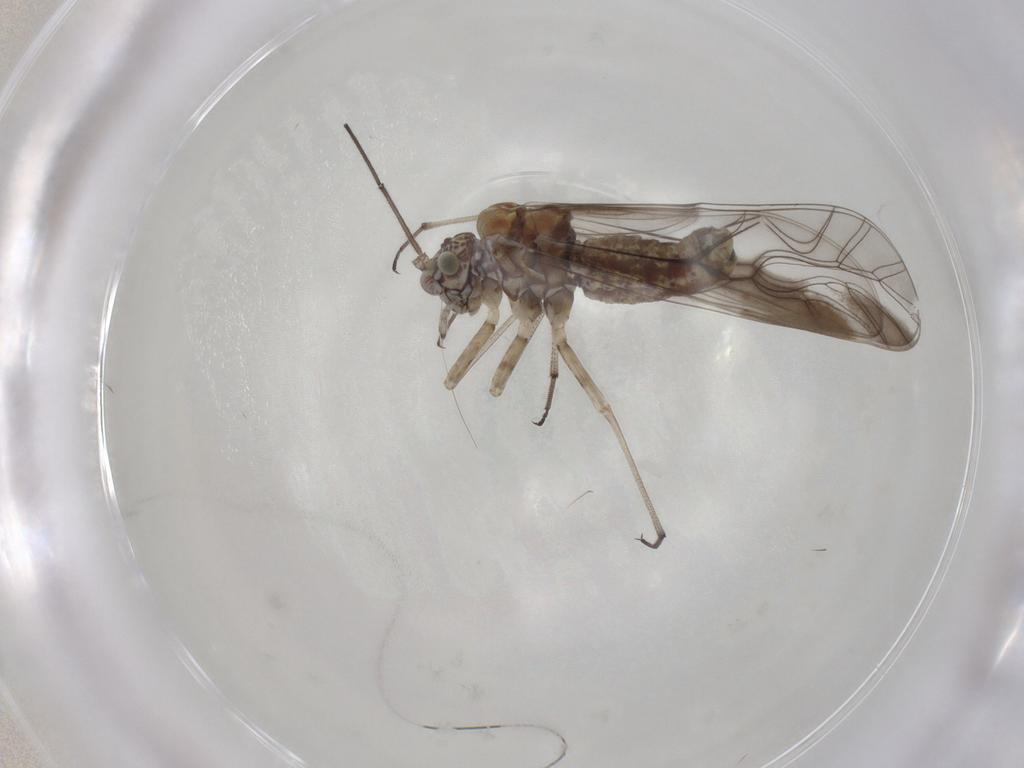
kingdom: Animalia
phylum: Arthropoda
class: Insecta
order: Psocodea
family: Psocidae
